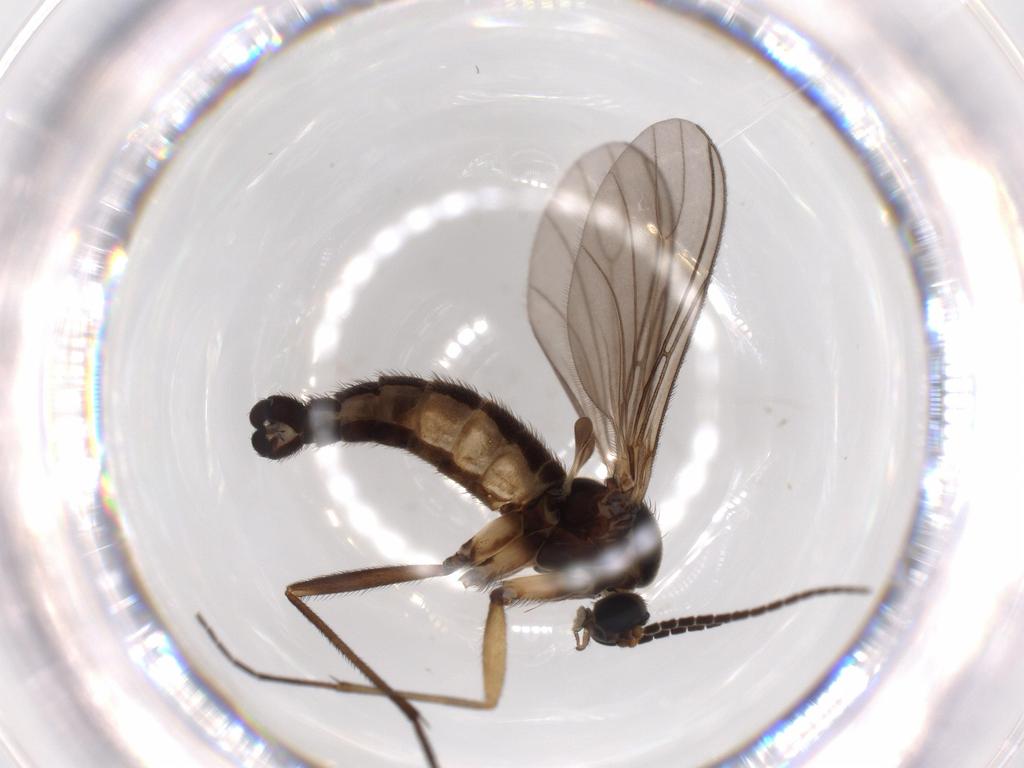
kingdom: Animalia
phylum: Arthropoda
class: Insecta
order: Diptera
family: Sciaridae
